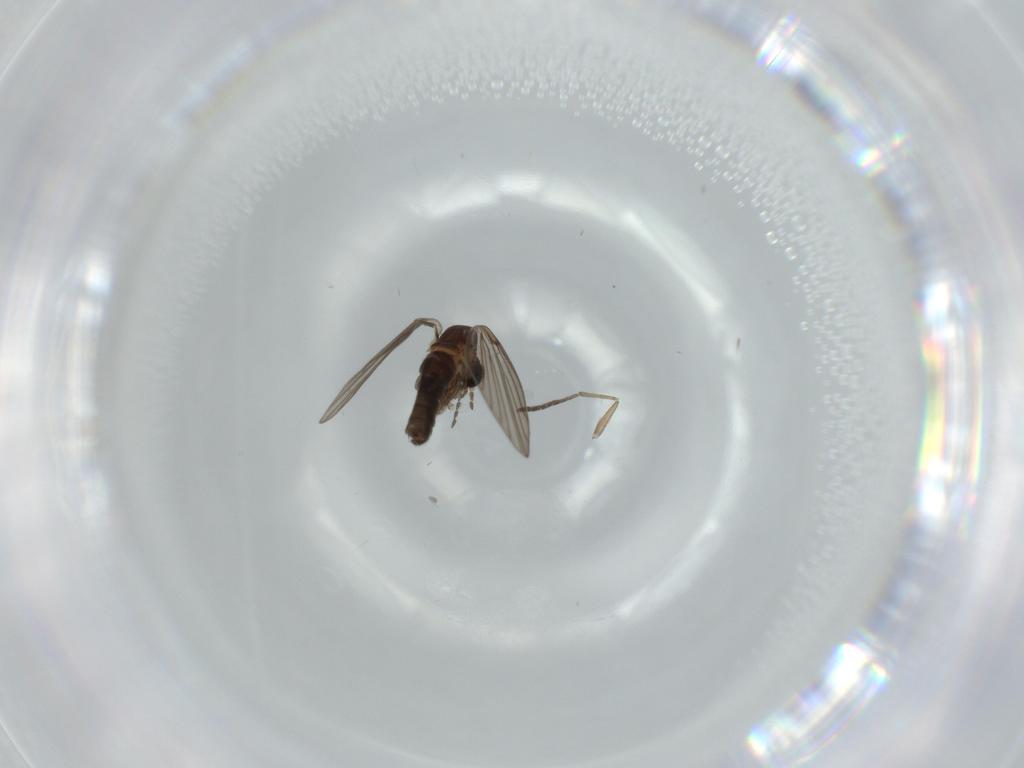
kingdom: Animalia
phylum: Arthropoda
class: Insecta
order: Diptera
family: Psychodidae
